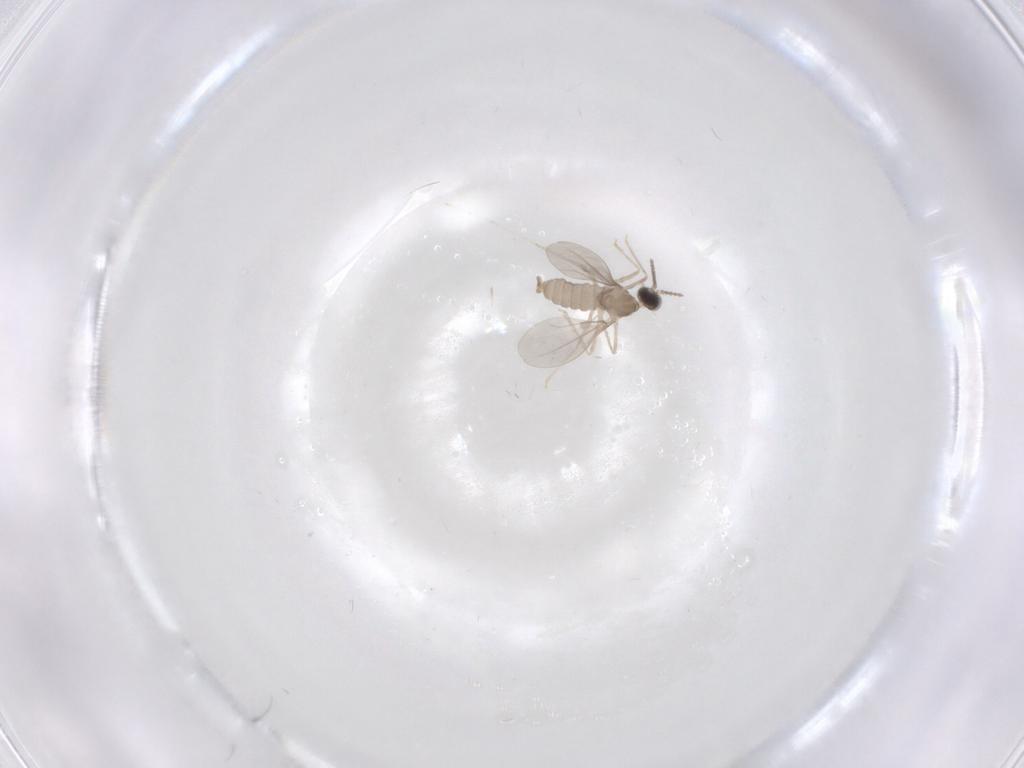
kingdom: Animalia
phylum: Arthropoda
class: Insecta
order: Diptera
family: Cecidomyiidae
